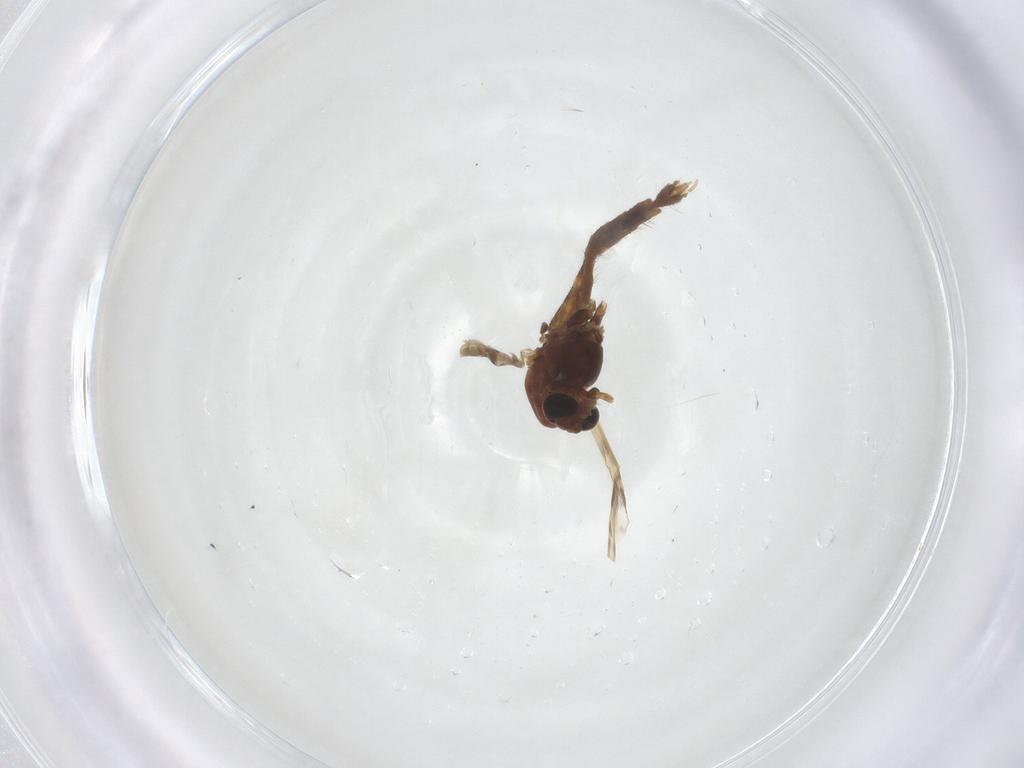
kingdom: Animalia
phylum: Arthropoda
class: Insecta
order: Diptera
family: Chironomidae
